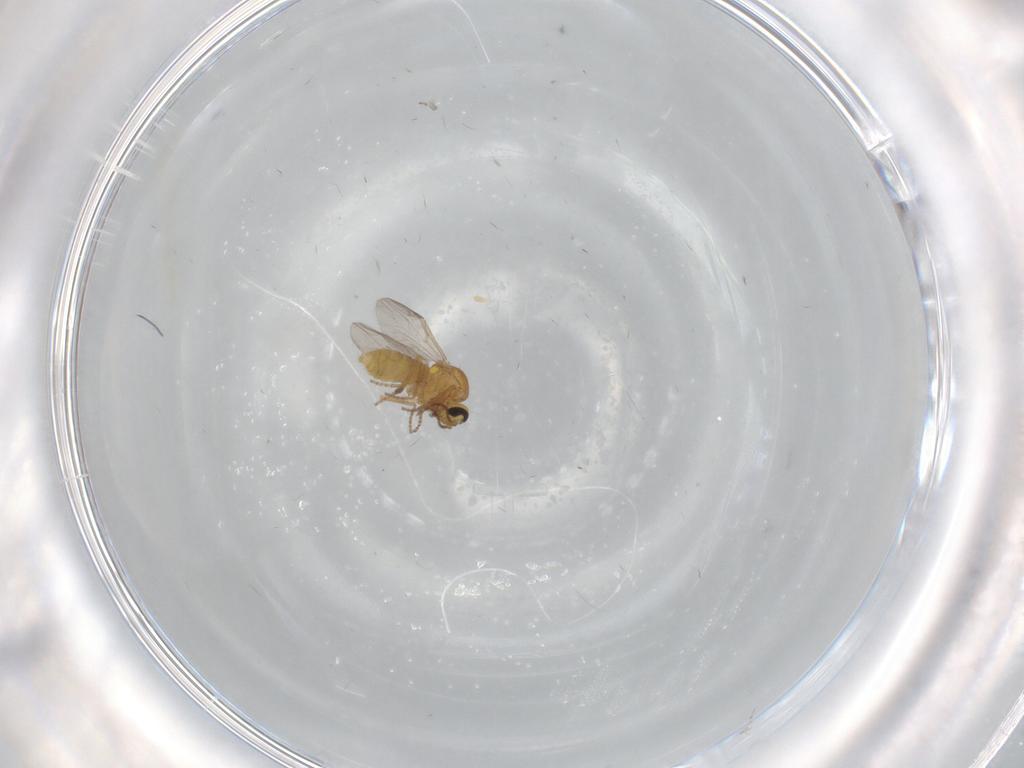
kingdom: Animalia
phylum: Arthropoda
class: Insecta
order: Diptera
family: Ceratopogonidae
